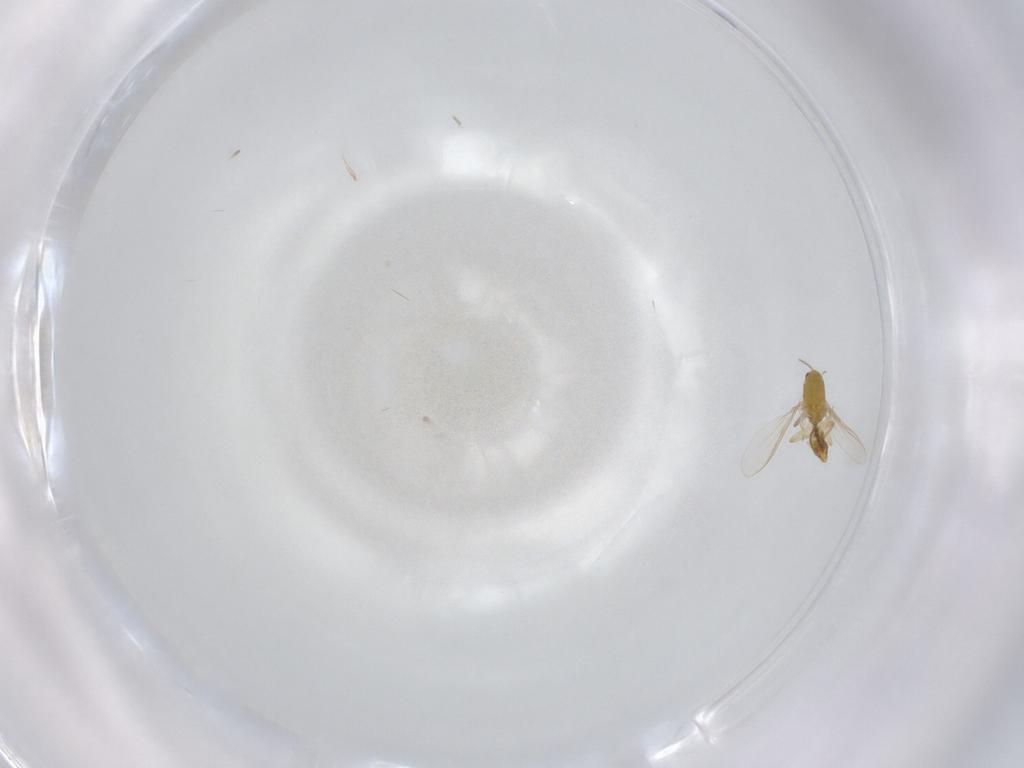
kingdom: Animalia
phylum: Arthropoda
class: Insecta
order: Diptera
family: Chironomidae
